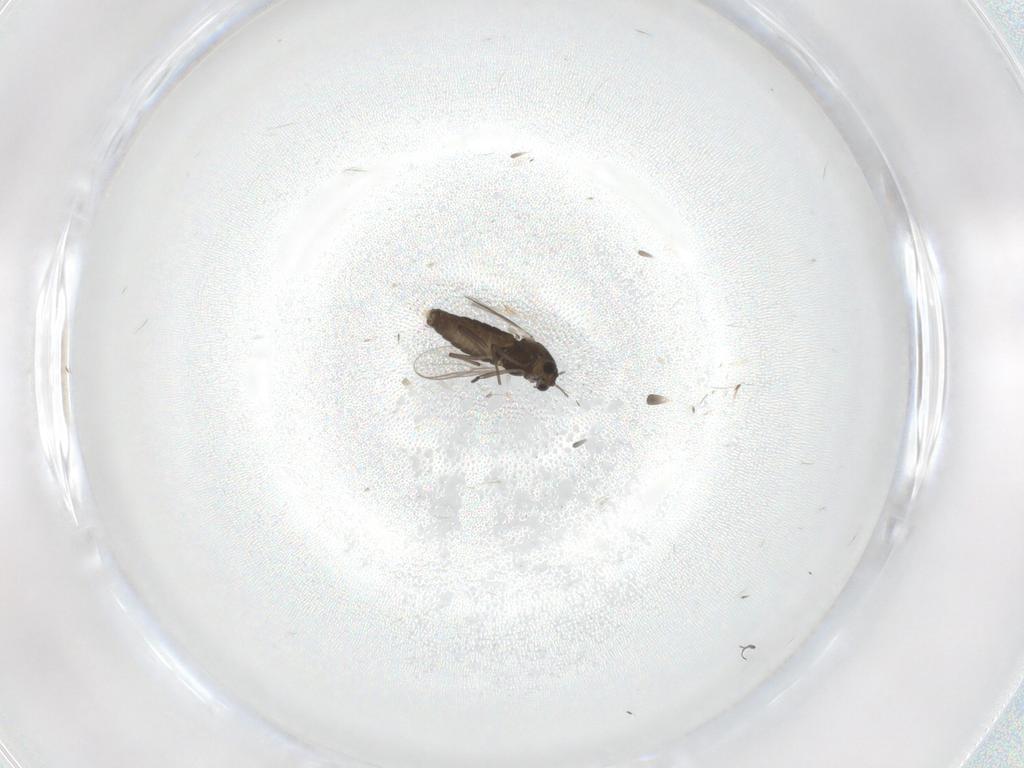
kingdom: Animalia
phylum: Arthropoda
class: Insecta
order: Diptera
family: Chironomidae
